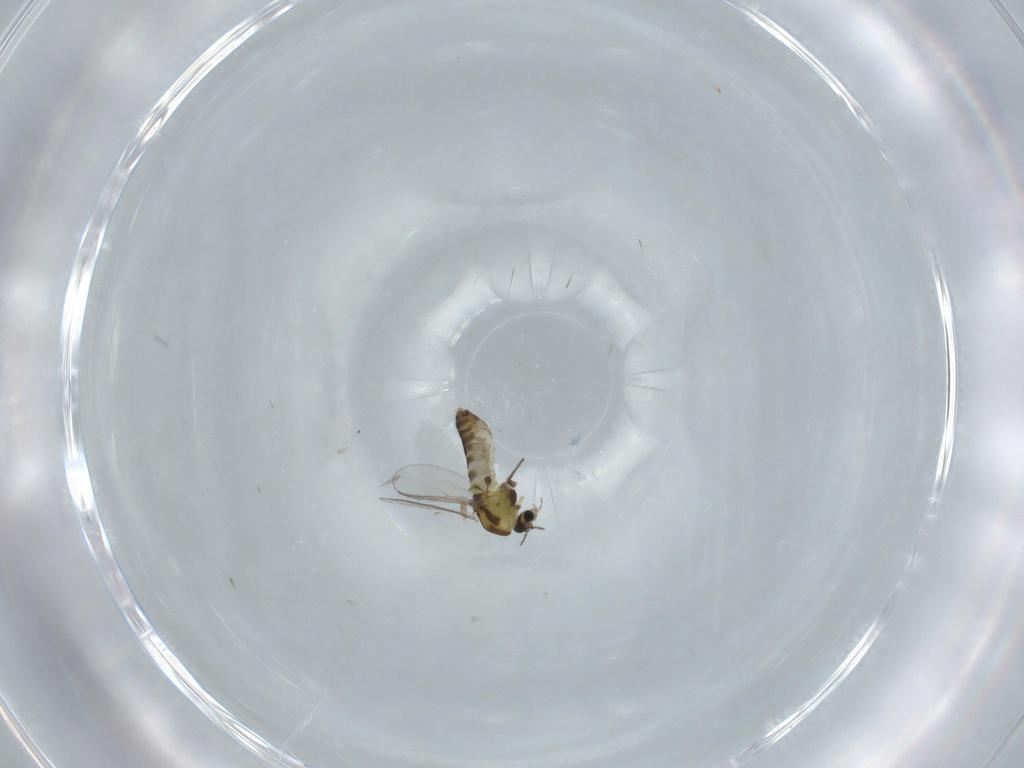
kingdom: Animalia
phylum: Arthropoda
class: Insecta
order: Diptera
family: Chironomidae
